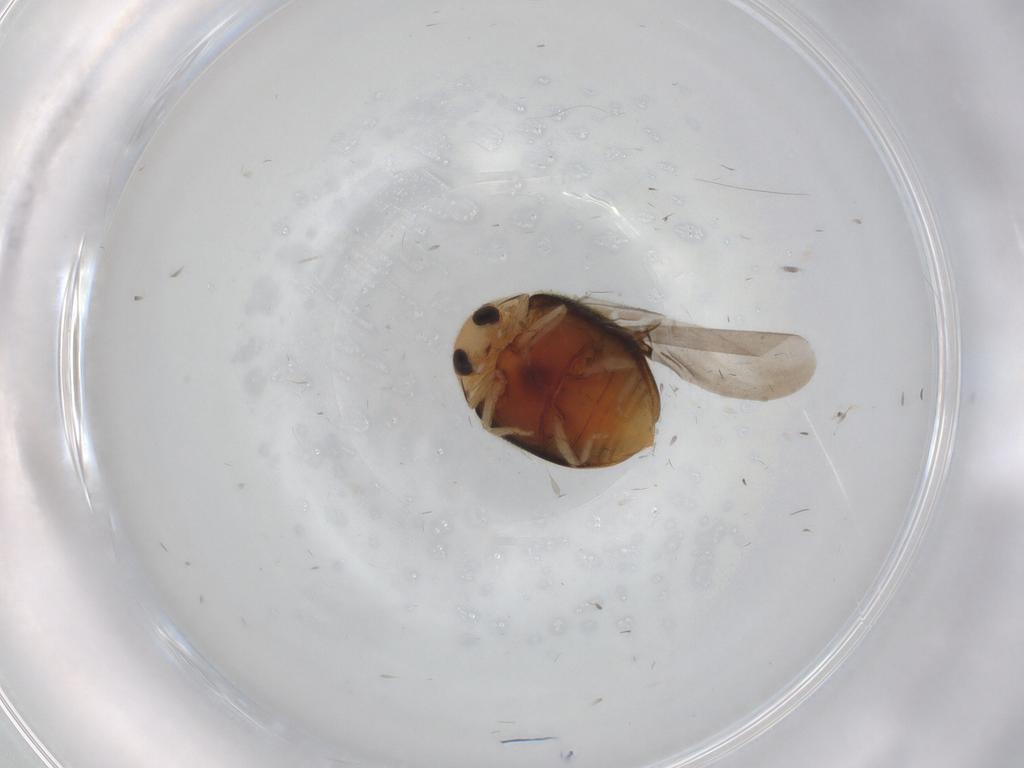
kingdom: Animalia
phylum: Arthropoda
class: Insecta
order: Coleoptera
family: Coccinellidae
